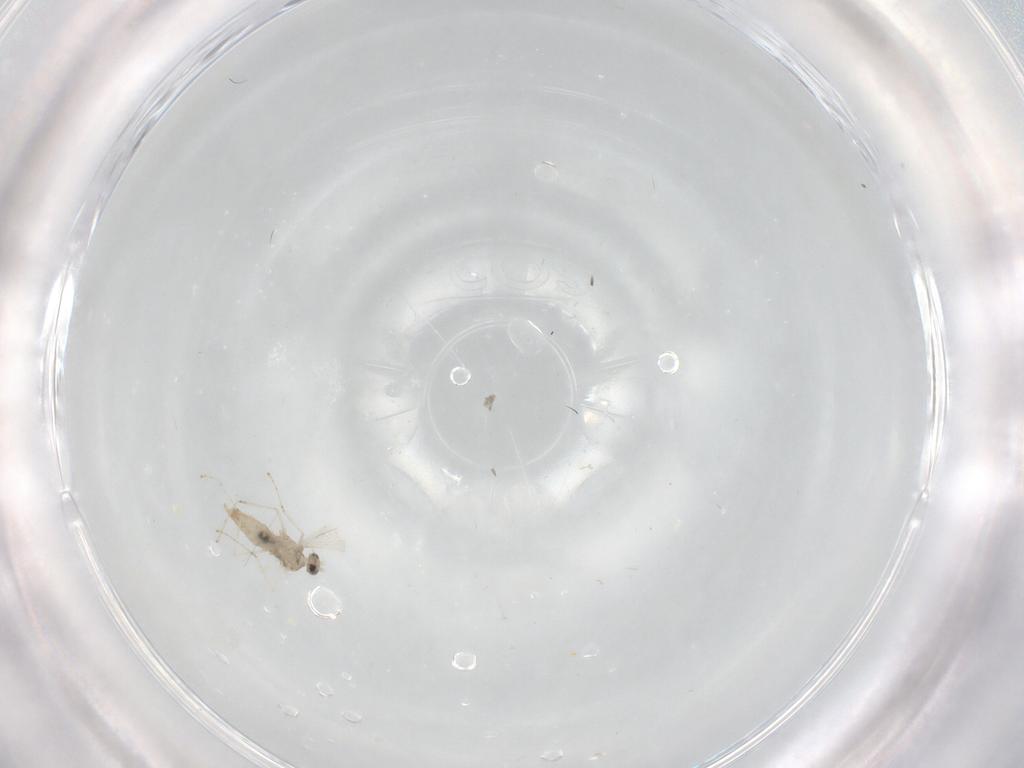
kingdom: Animalia
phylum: Arthropoda
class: Insecta
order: Diptera
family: Cecidomyiidae
